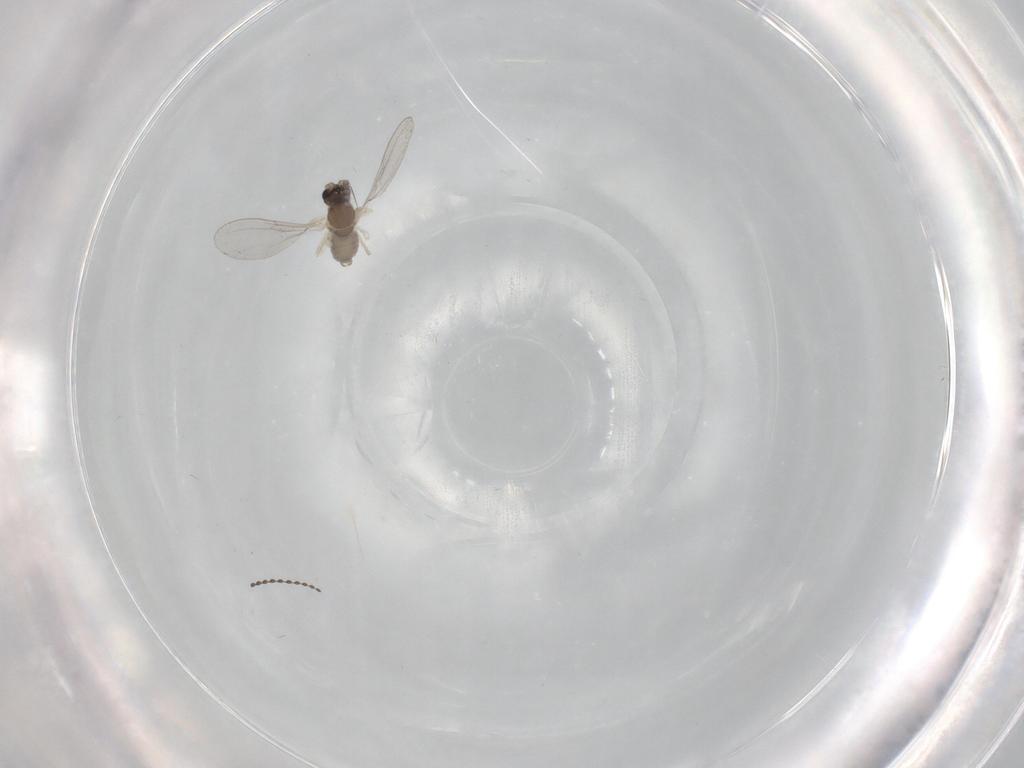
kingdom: Animalia
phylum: Arthropoda
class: Insecta
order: Diptera
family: Cecidomyiidae
